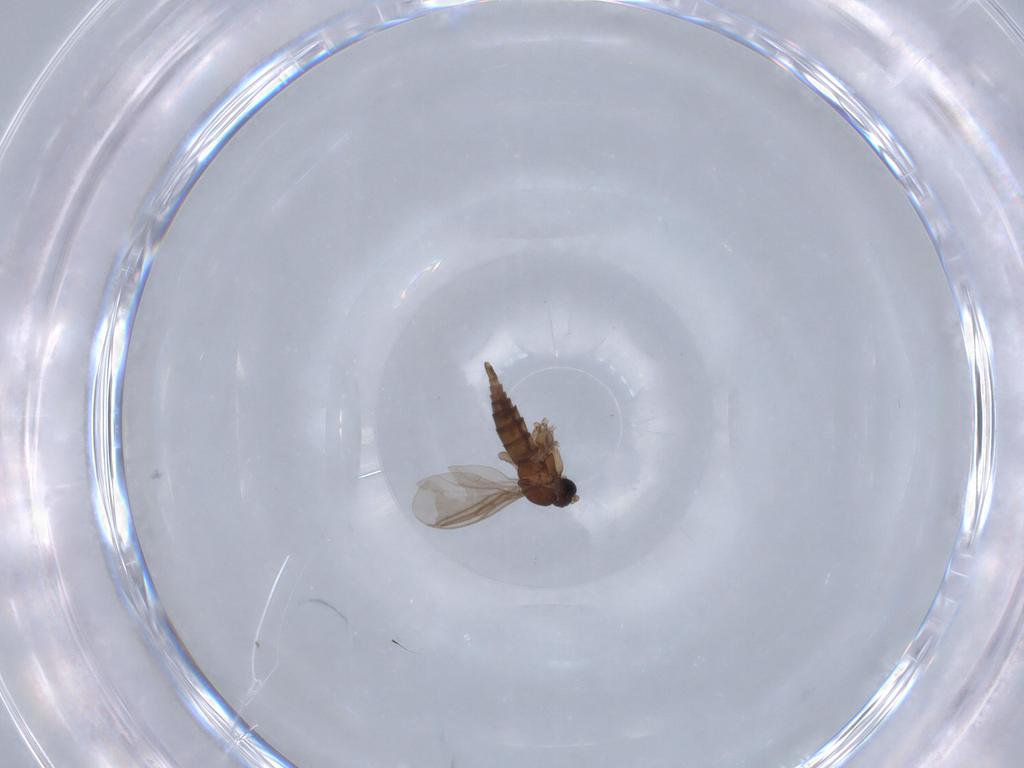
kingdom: Animalia
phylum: Arthropoda
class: Insecta
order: Diptera
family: Sciaridae
